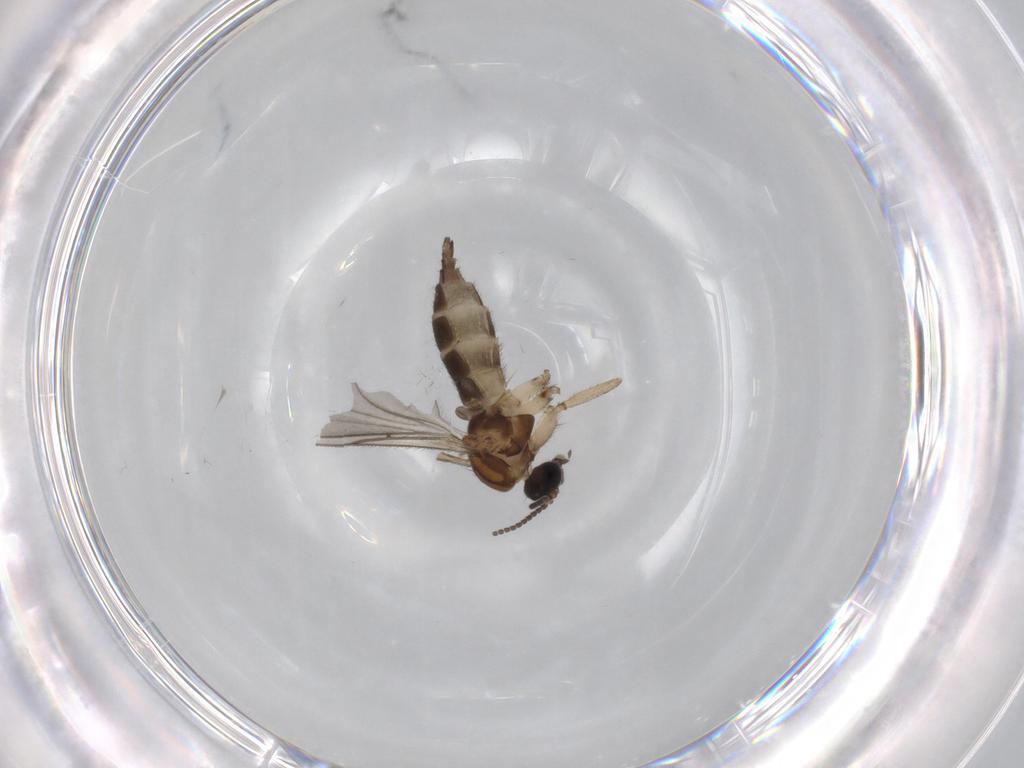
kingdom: Animalia
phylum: Arthropoda
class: Insecta
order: Diptera
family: Sciaridae
